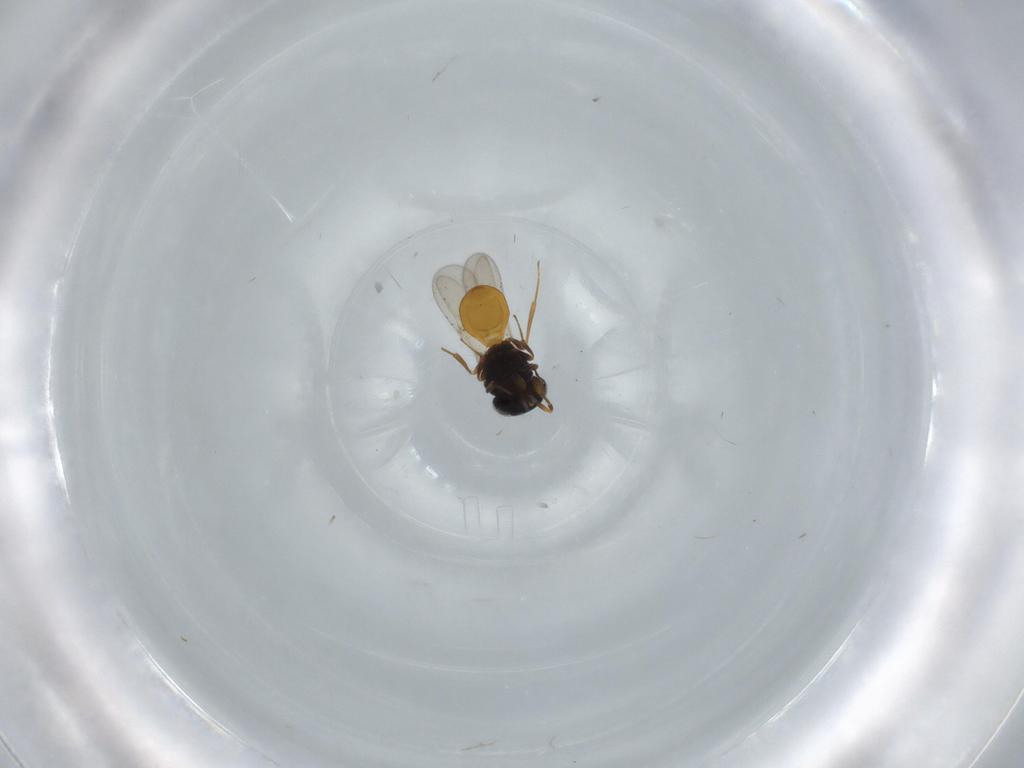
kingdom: Animalia
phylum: Arthropoda
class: Insecta
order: Hymenoptera
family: Scelionidae
